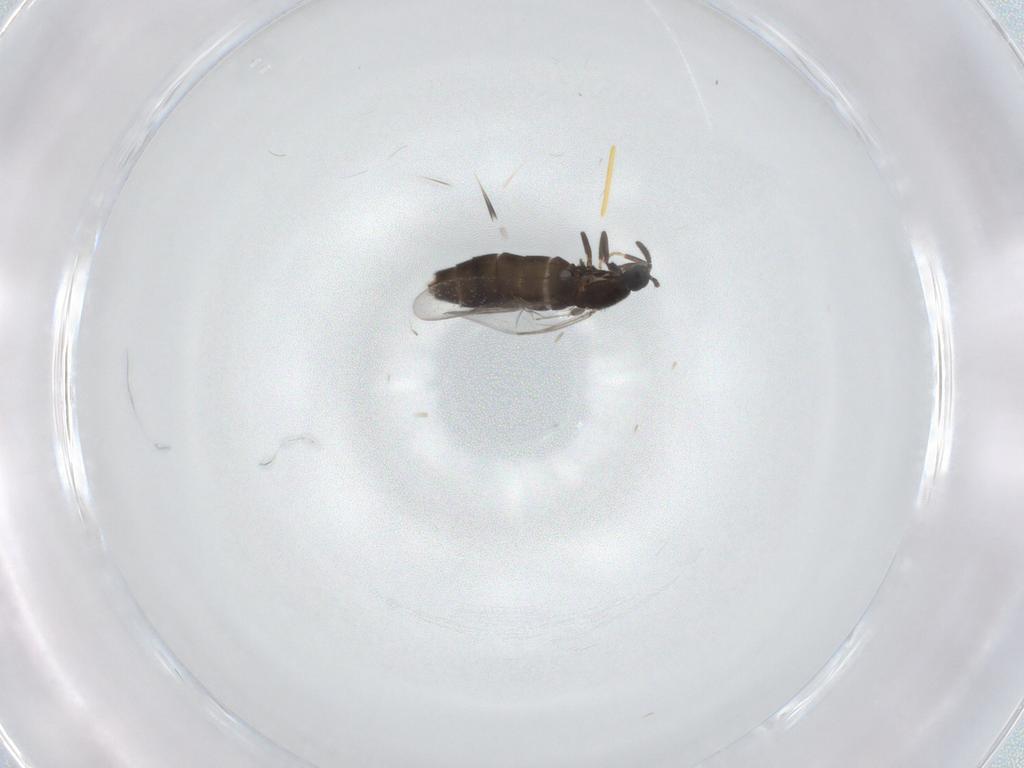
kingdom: Animalia
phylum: Arthropoda
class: Insecta
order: Diptera
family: Scatopsidae
